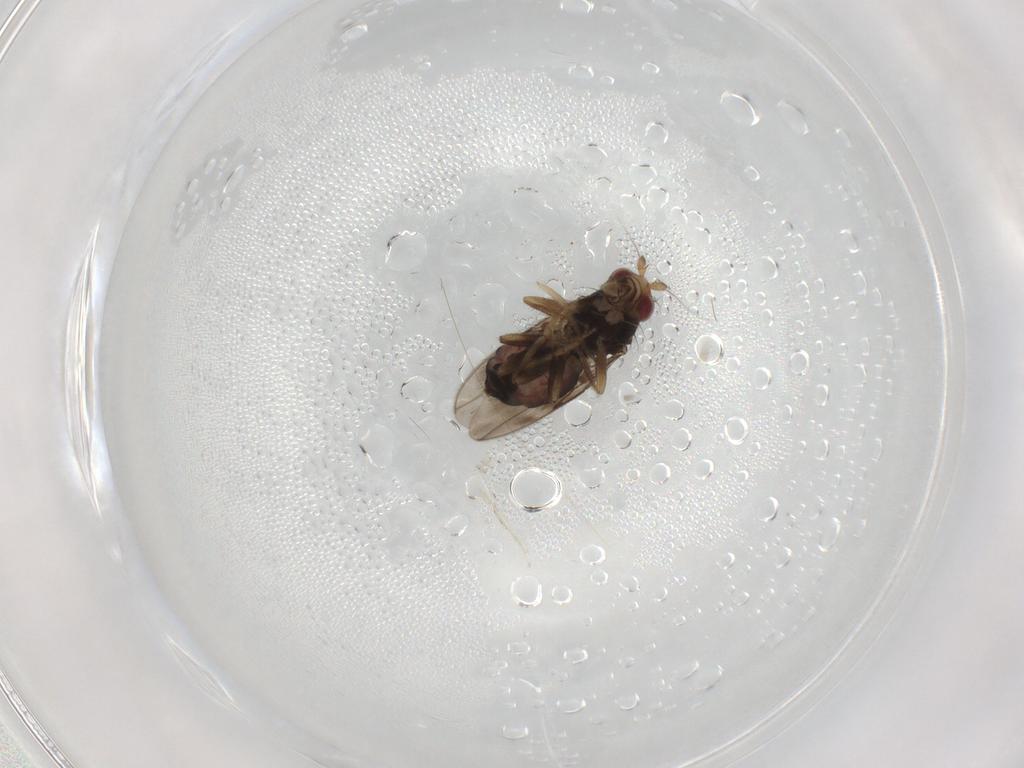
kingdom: Animalia
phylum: Arthropoda
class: Insecta
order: Diptera
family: Sphaeroceridae
